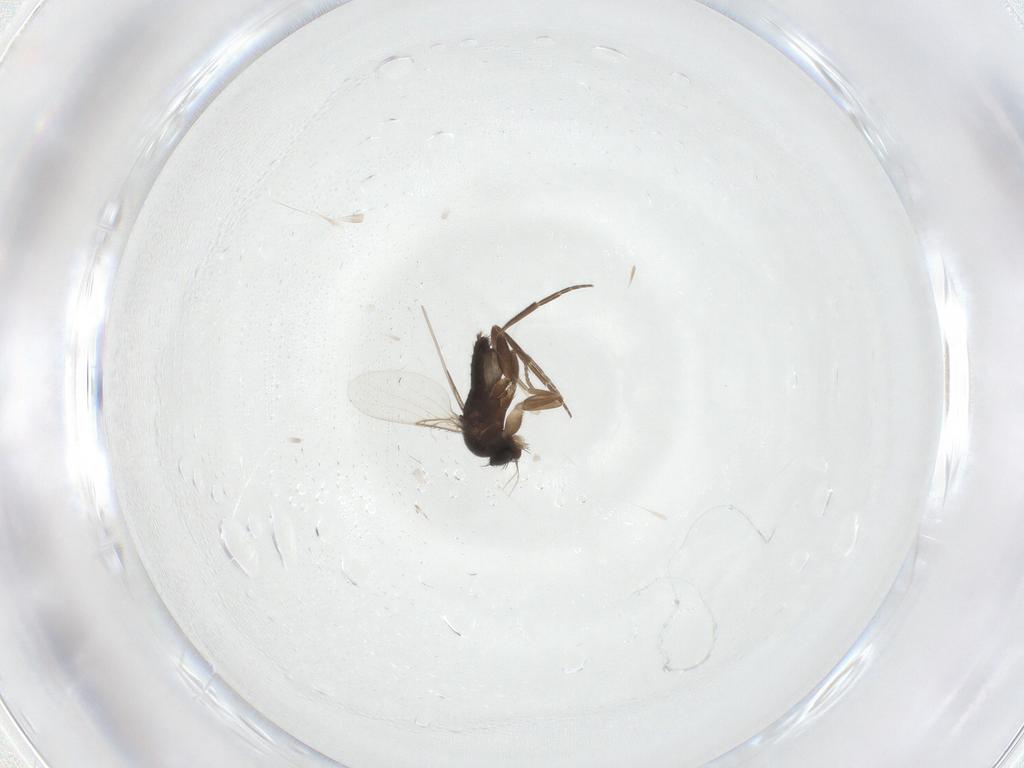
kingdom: Animalia
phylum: Arthropoda
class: Insecta
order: Diptera
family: Phoridae
